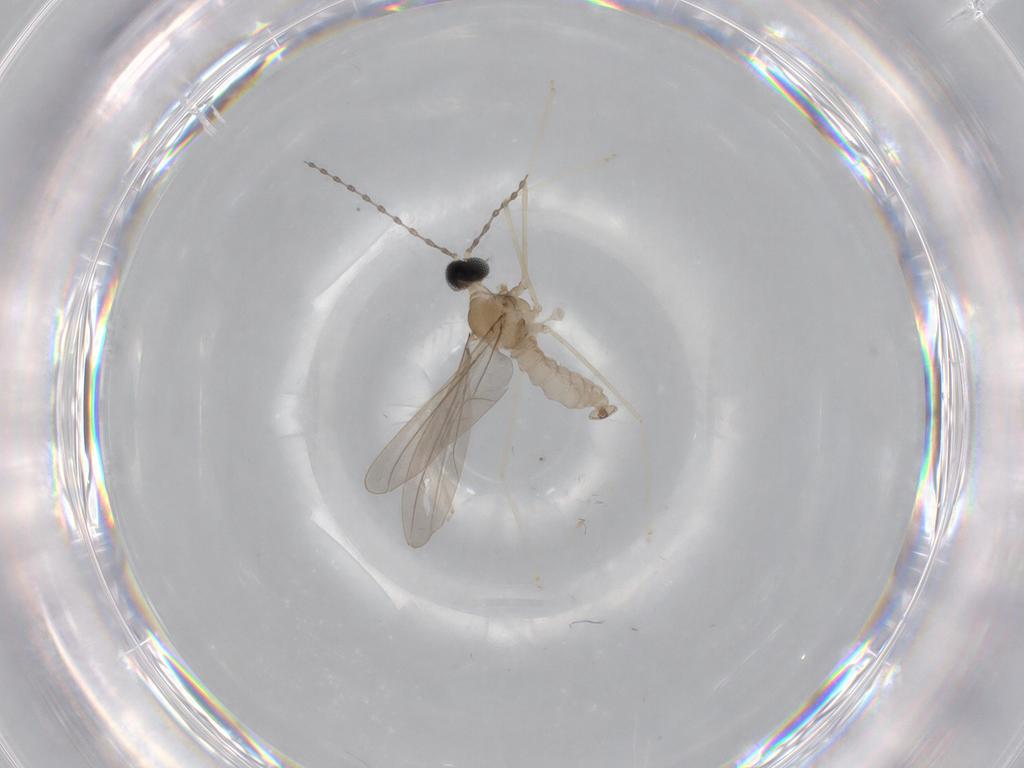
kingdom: Animalia
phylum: Arthropoda
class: Insecta
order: Diptera
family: Cecidomyiidae
